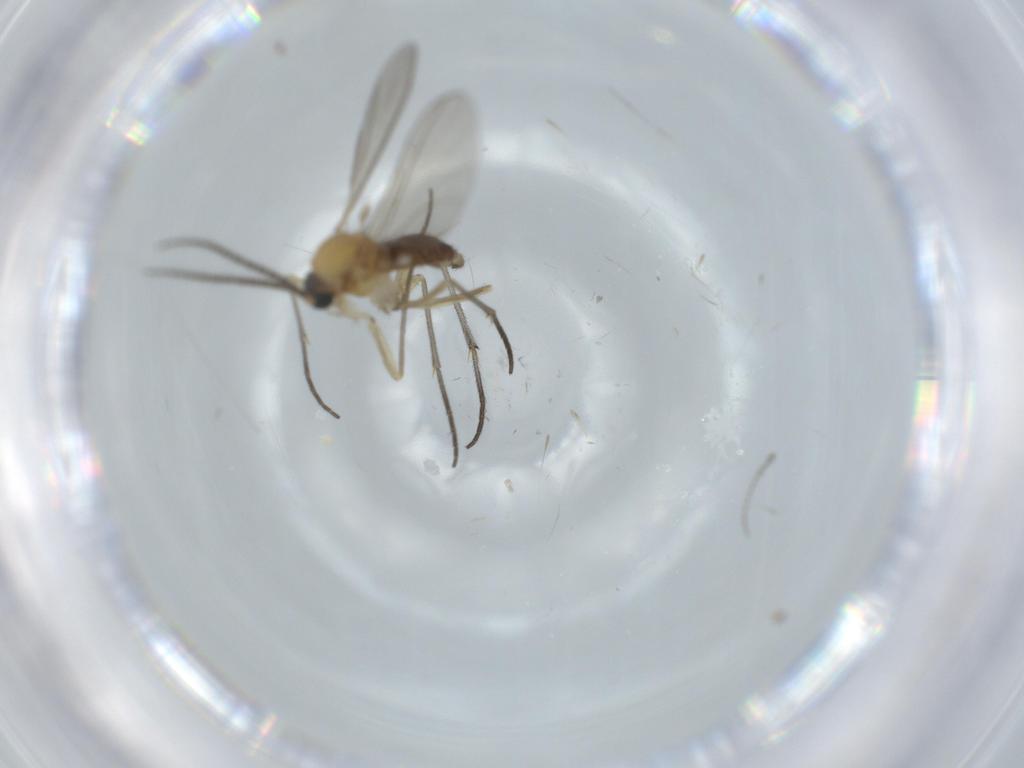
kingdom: Animalia
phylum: Arthropoda
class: Insecta
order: Diptera
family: Sciaridae
